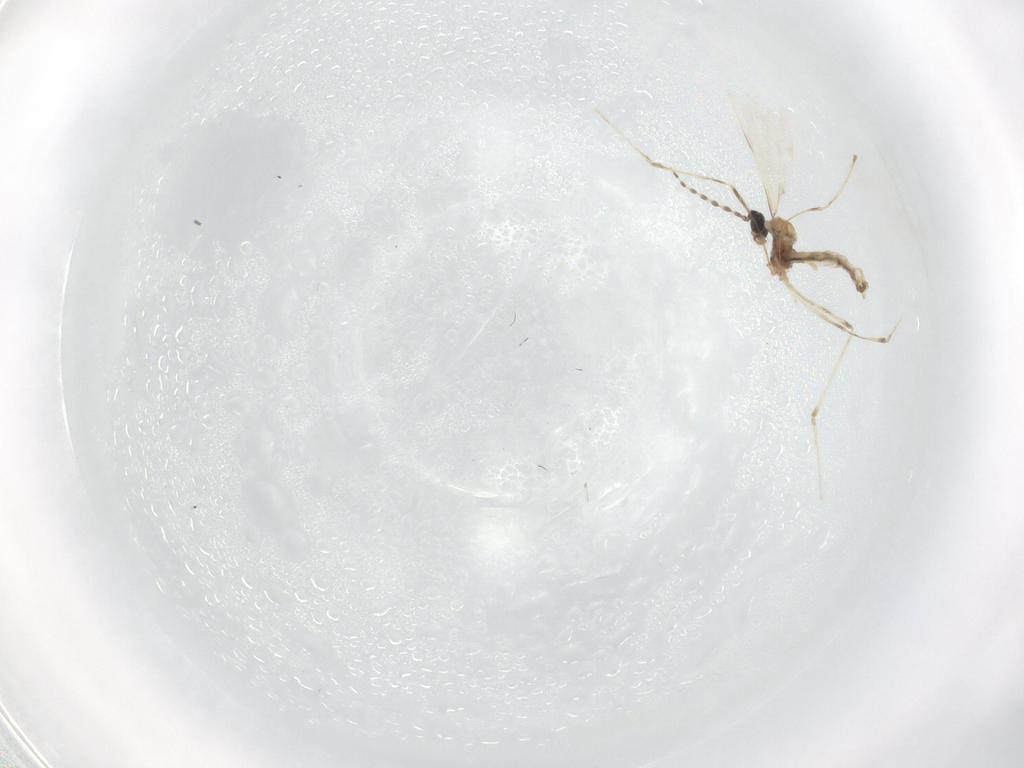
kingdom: Animalia
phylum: Arthropoda
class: Insecta
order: Diptera
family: Cecidomyiidae
